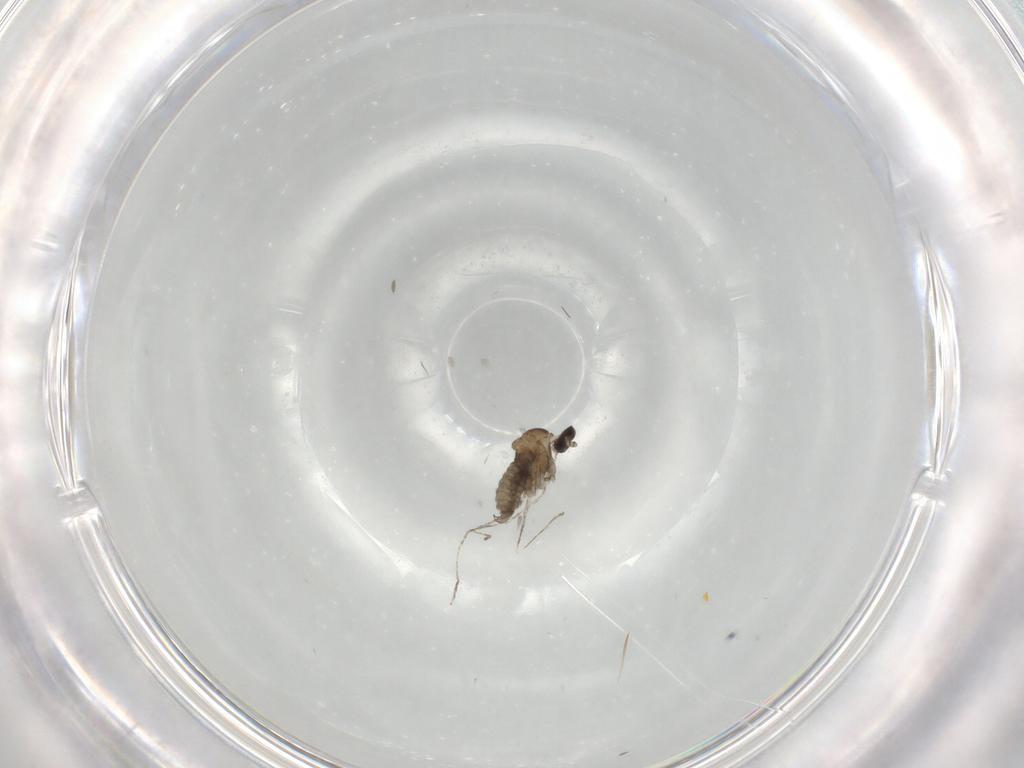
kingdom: Animalia
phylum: Arthropoda
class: Insecta
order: Diptera
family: Cecidomyiidae
